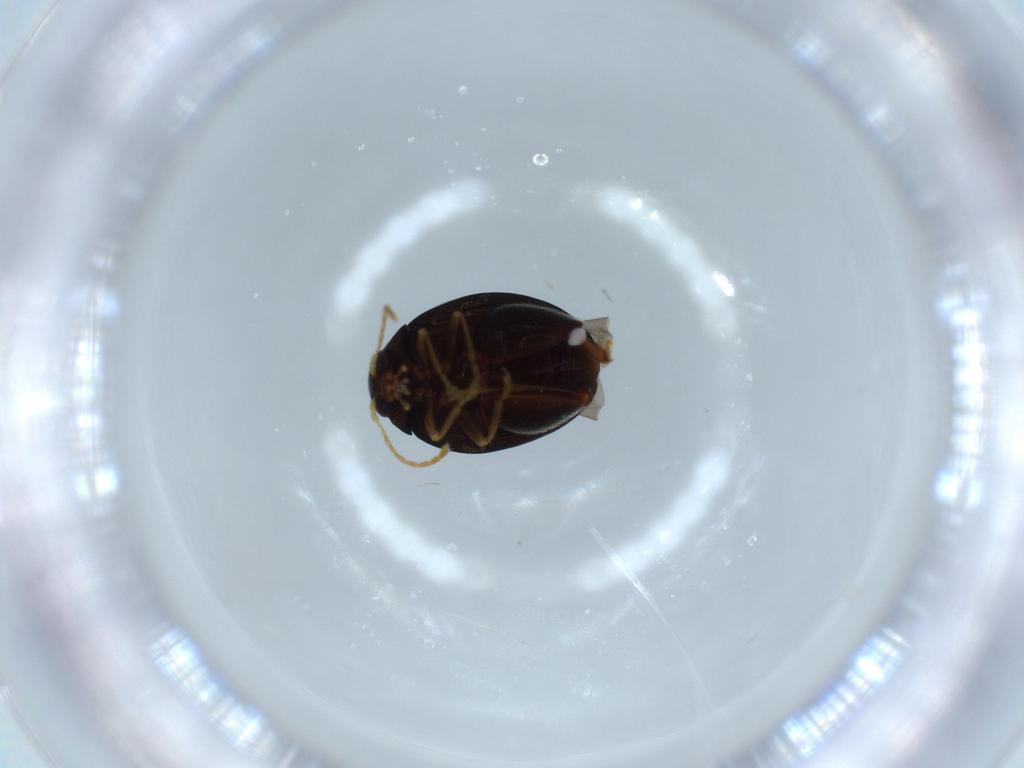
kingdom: Animalia
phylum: Arthropoda
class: Insecta
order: Coleoptera
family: Chrysomelidae
